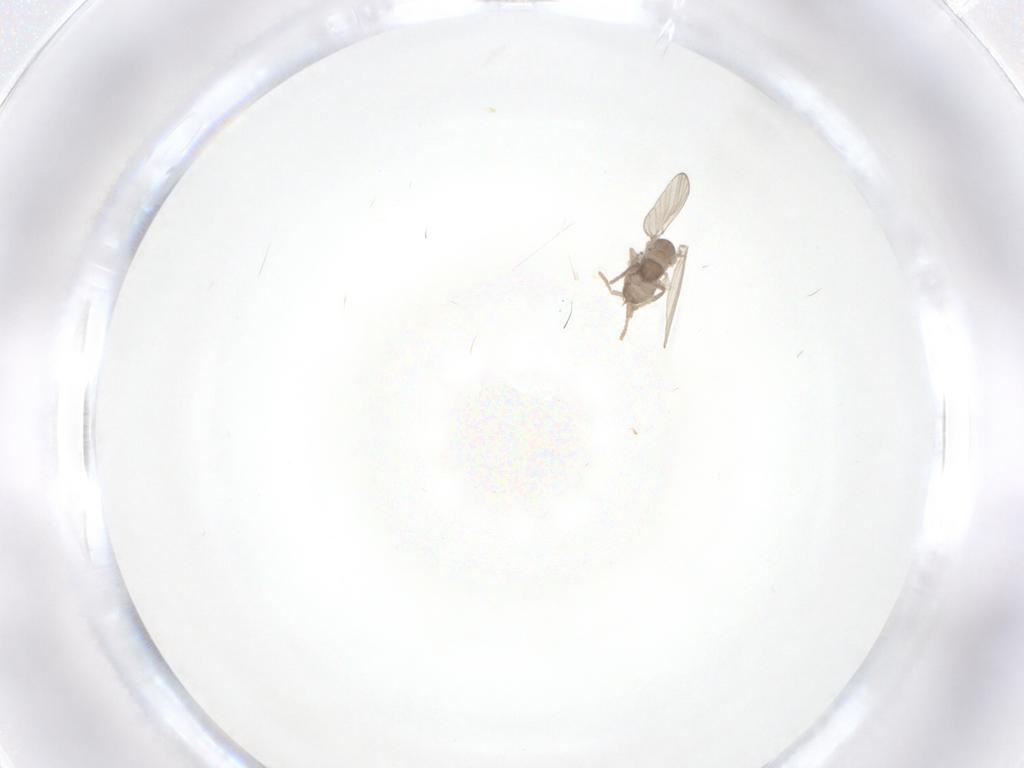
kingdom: Animalia
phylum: Arthropoda
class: Insecta
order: Diptera
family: Psychodidae
